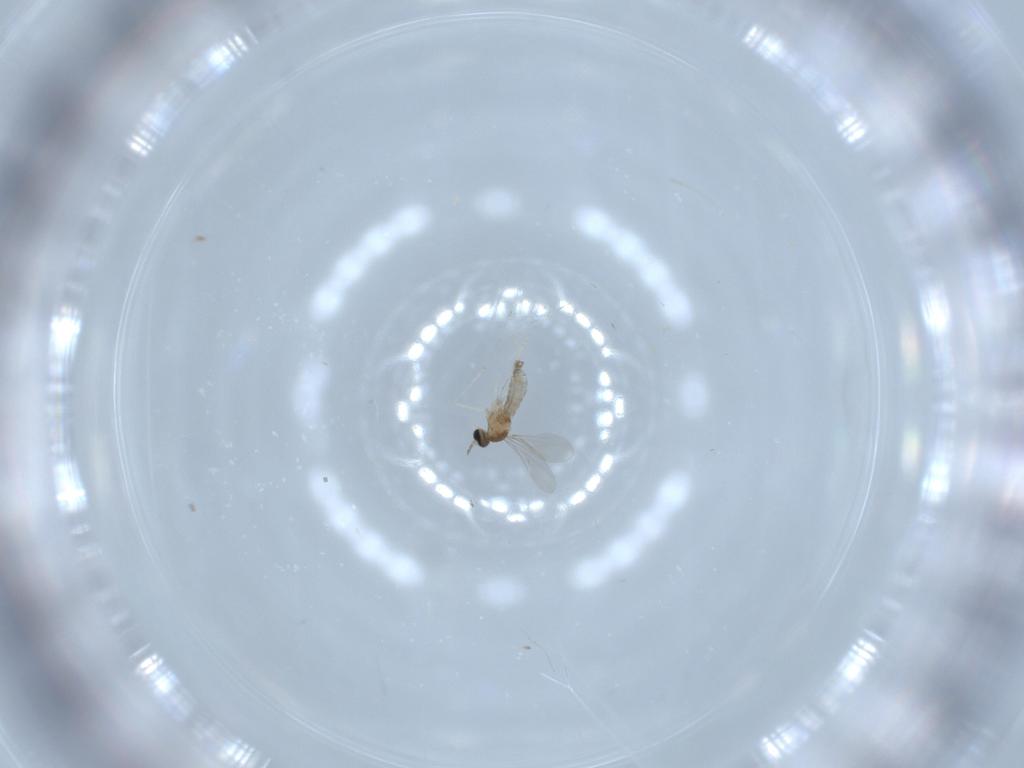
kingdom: Animalia
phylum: Arthropoda
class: Insecta
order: Diptera
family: Cecidomyiidae
